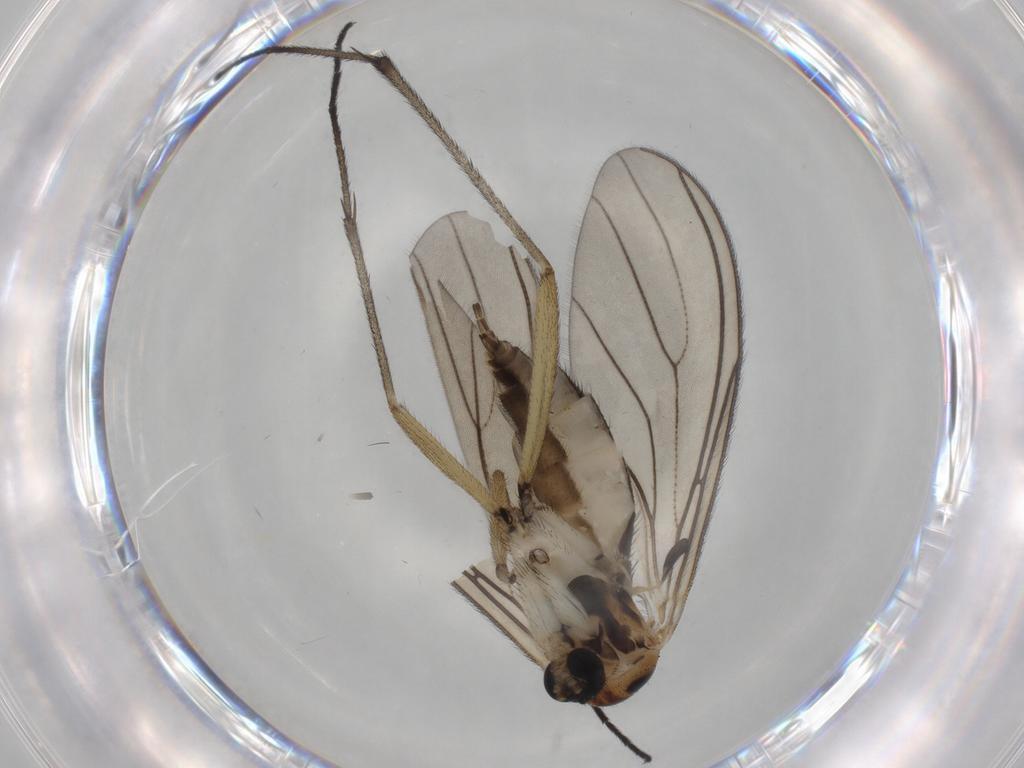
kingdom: Animalia
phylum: Arthropoda
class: Insecta
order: Diptera
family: Sciaridae
